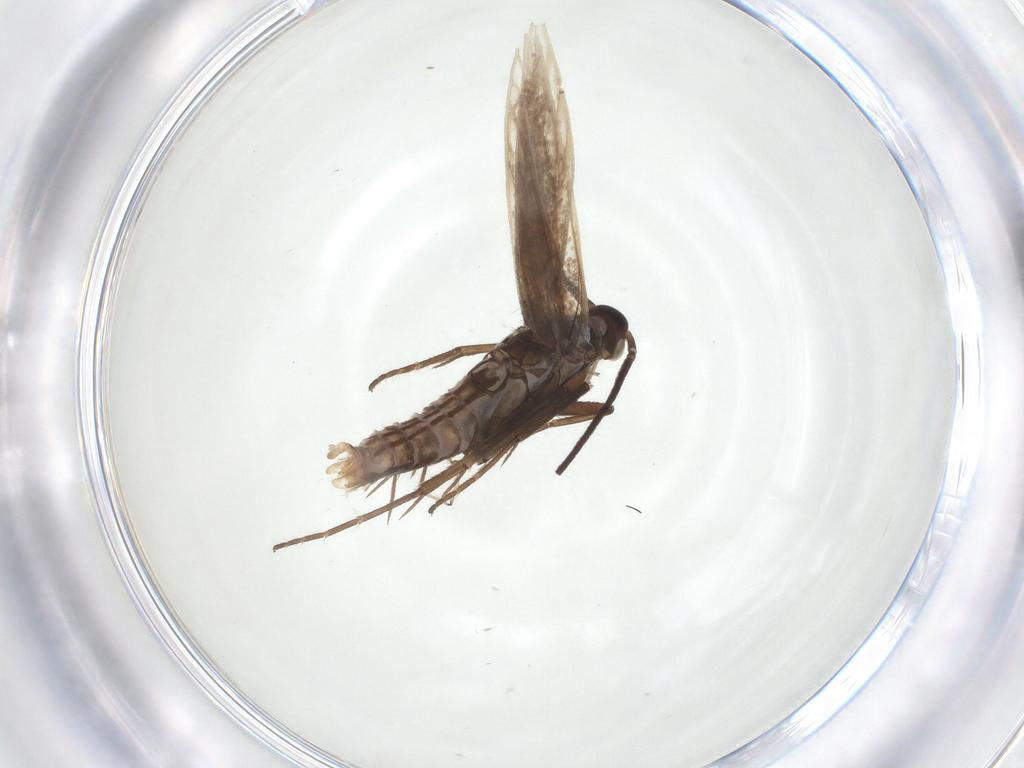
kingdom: Animalia
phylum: Arthropoda
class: Insecta
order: Lepidoptera
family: Coleophoridae
